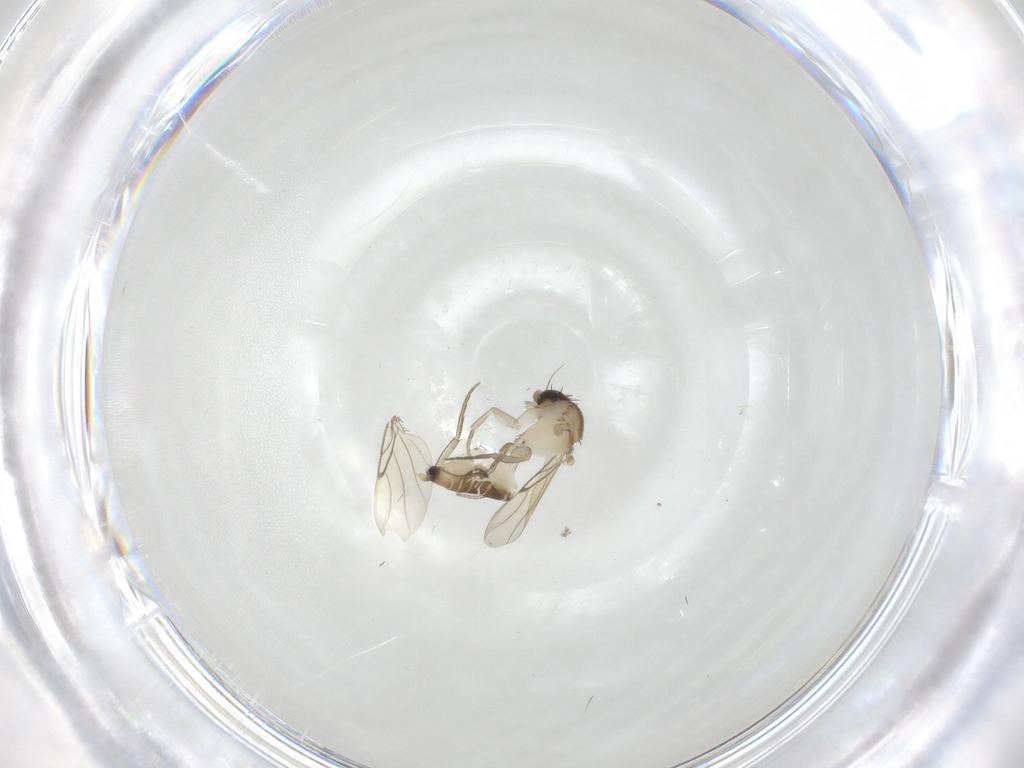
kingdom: Animalia
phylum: Arthropoda
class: Insecta
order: Diptera
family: Phoridae
